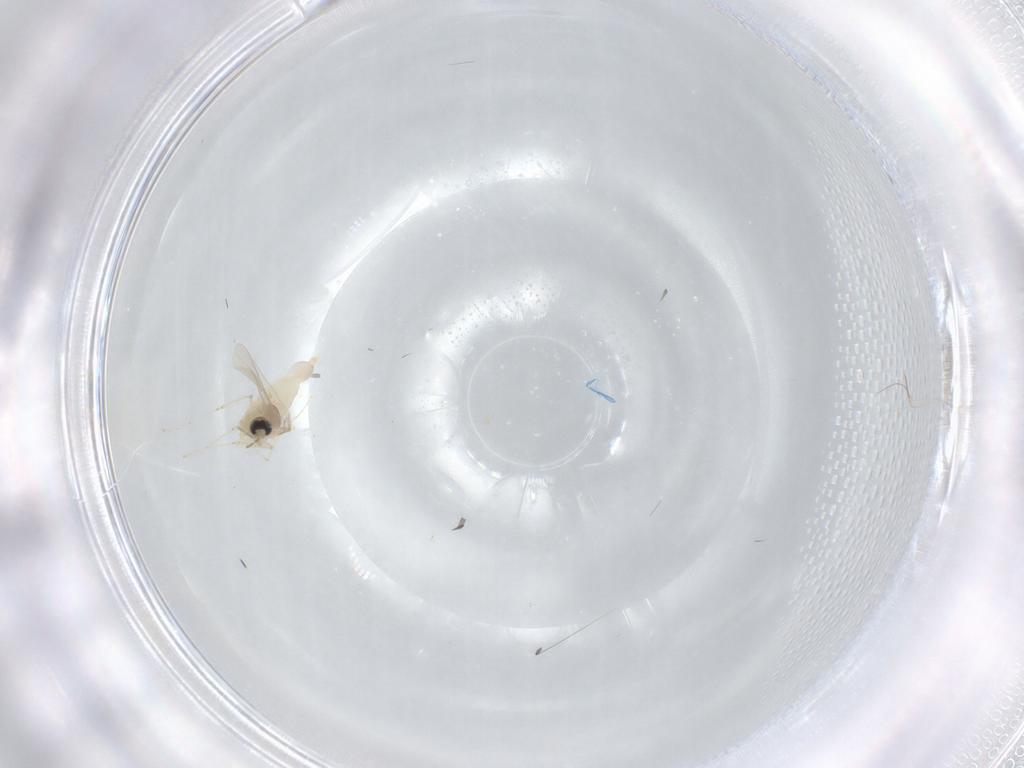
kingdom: Animalia
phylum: Arthropoda
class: Insecta
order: Diptera
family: Cecidomyiidae
